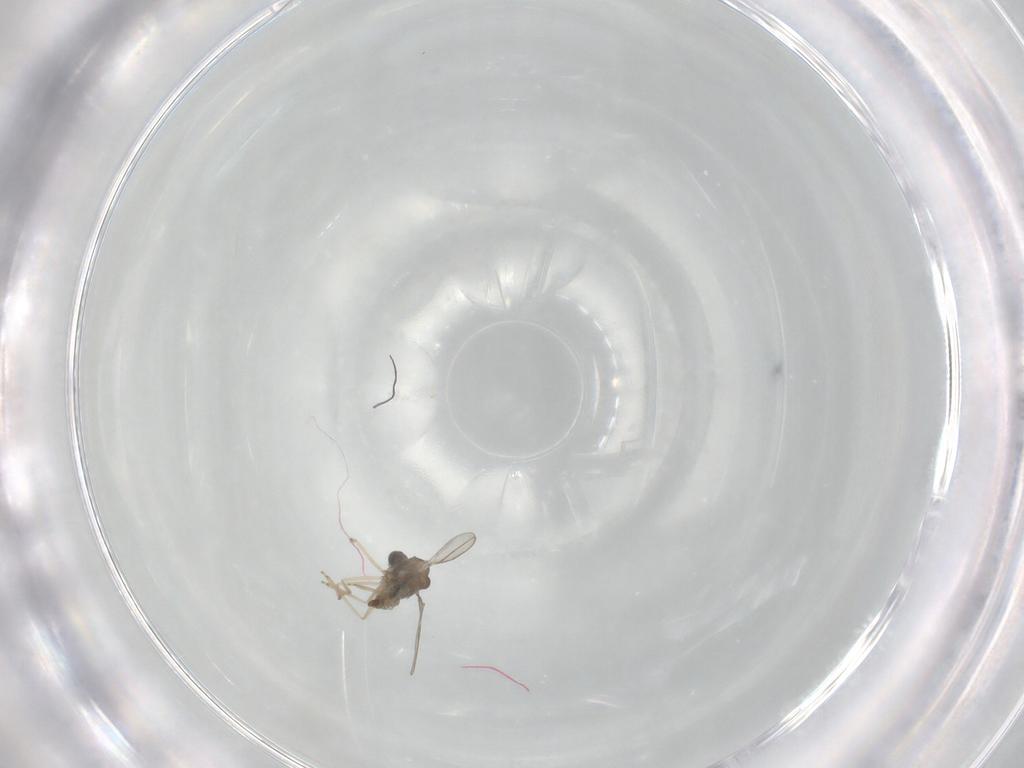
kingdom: Animalia
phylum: Arthropoda
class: Insecta
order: Diptera
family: Cecidomyiidae
